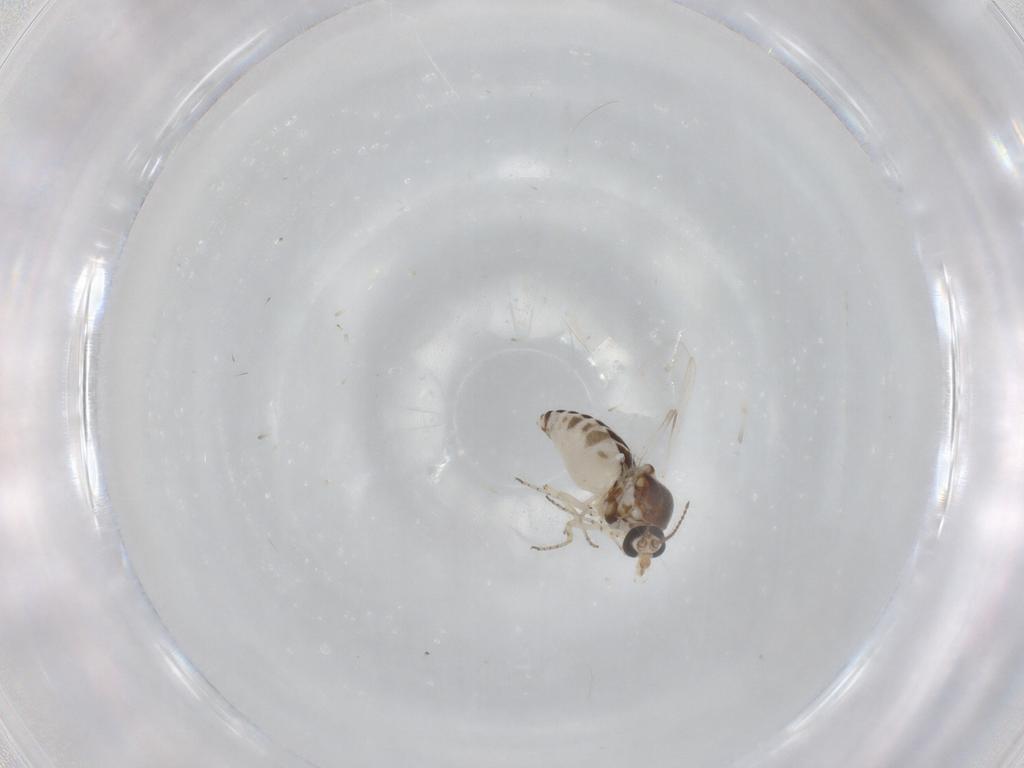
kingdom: Animalia
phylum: Arthropoda
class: Insecta
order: Diptera
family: Ceratopogonidae
